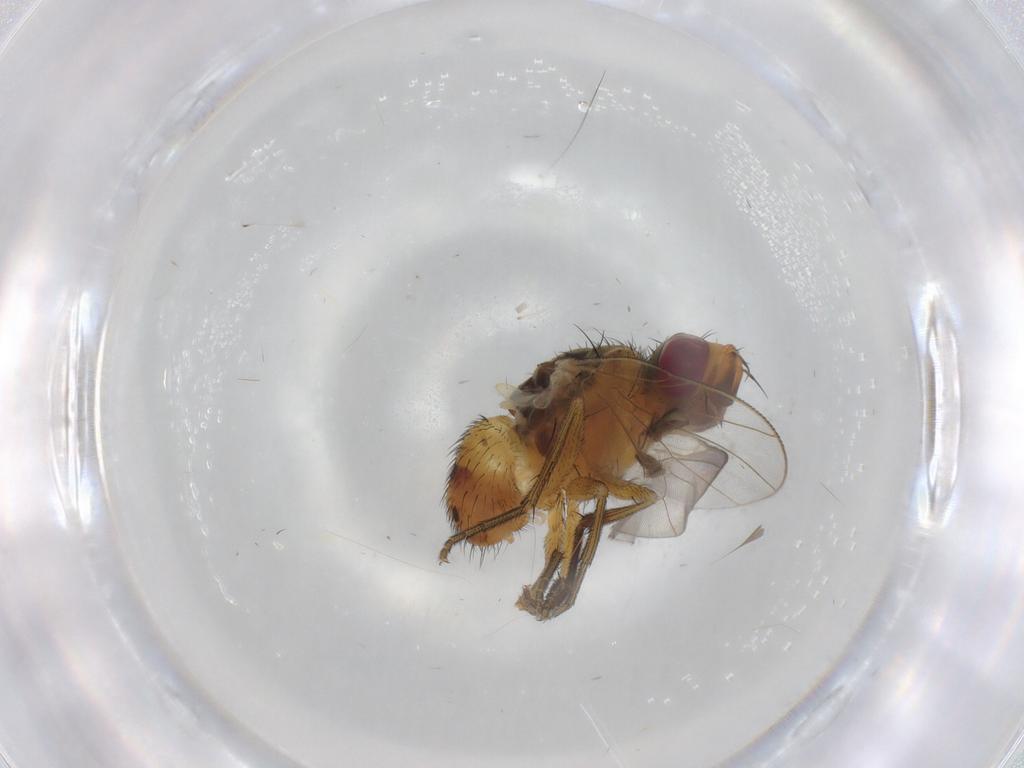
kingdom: Animalia
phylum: Arthropoda
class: Insecta
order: Diptera
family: Muscidae
